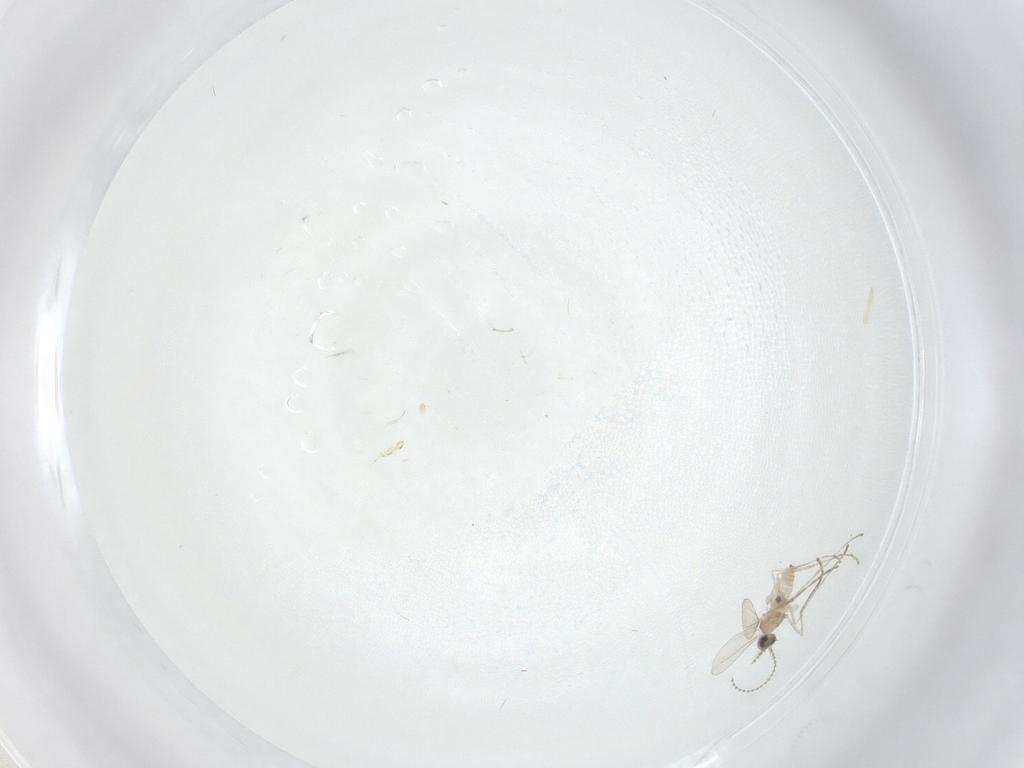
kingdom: Animalia
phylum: Arthropoda
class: Insecta
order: Diptera
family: Cecidomyiidae
